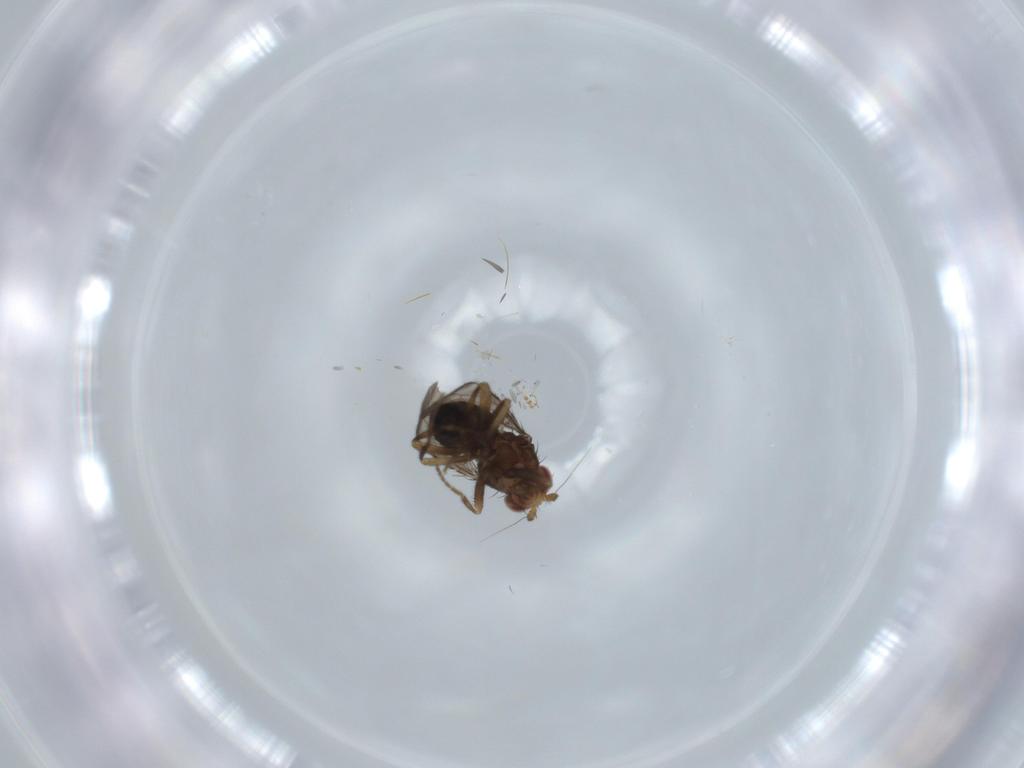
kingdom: Animalia
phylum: Arthropoda
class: Insecta
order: Diptera
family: Sphaeroceridae
